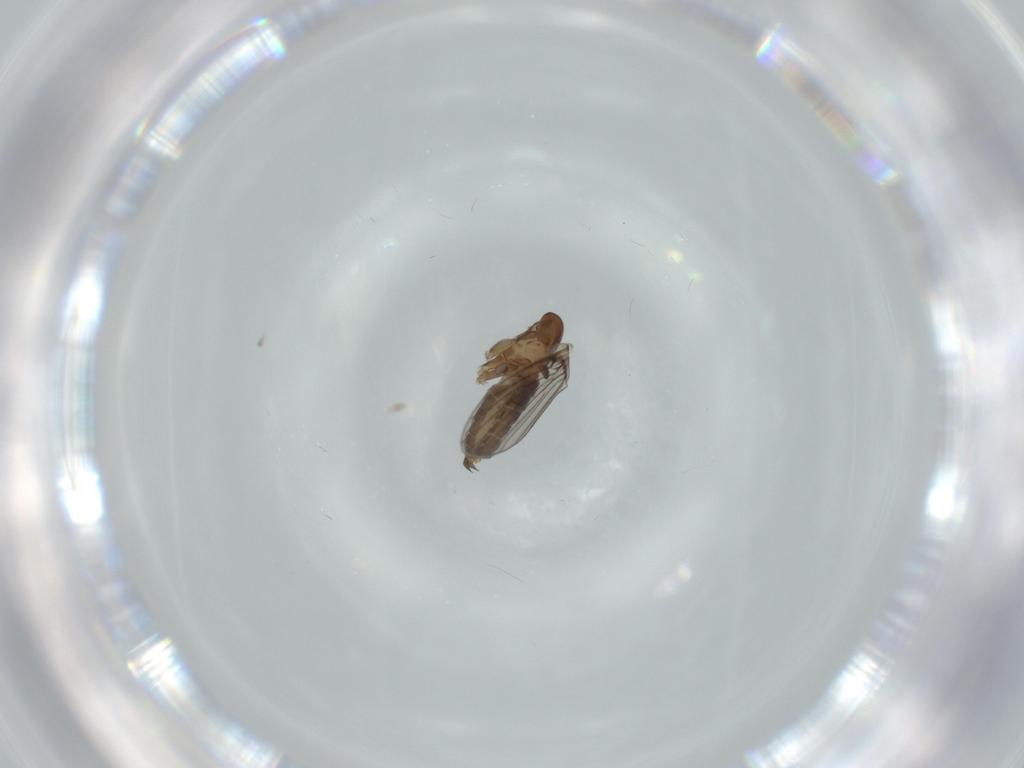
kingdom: Animalia
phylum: Arthropoda
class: Insecta
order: Diptera
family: Psychodidae
